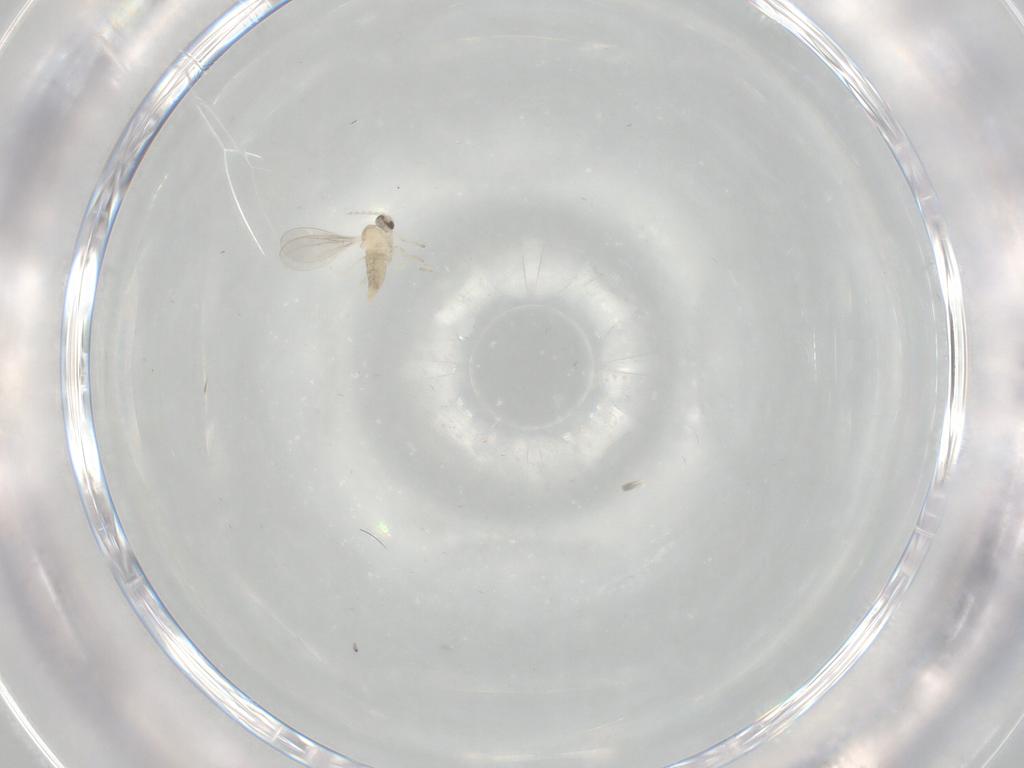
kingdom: Animalia
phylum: Arthropoda
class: Insecta
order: Diptera
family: Cecidomyiidae
